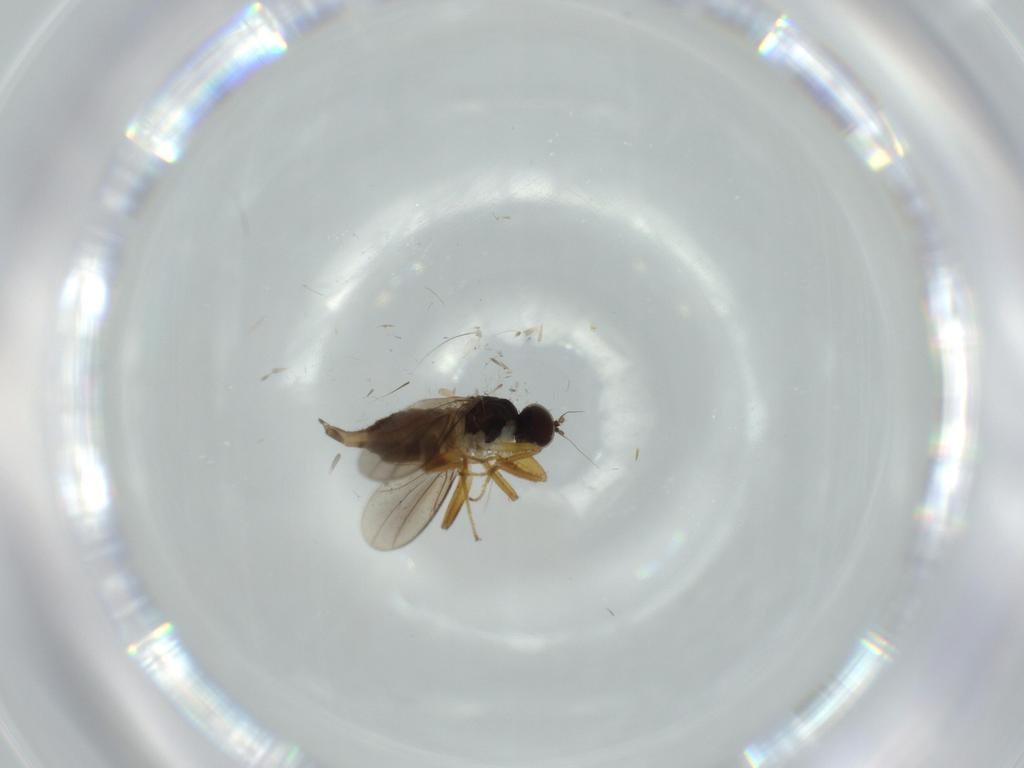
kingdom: Animalia
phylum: Arthropoda
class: Insecta
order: Diptera
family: Hybotidae
